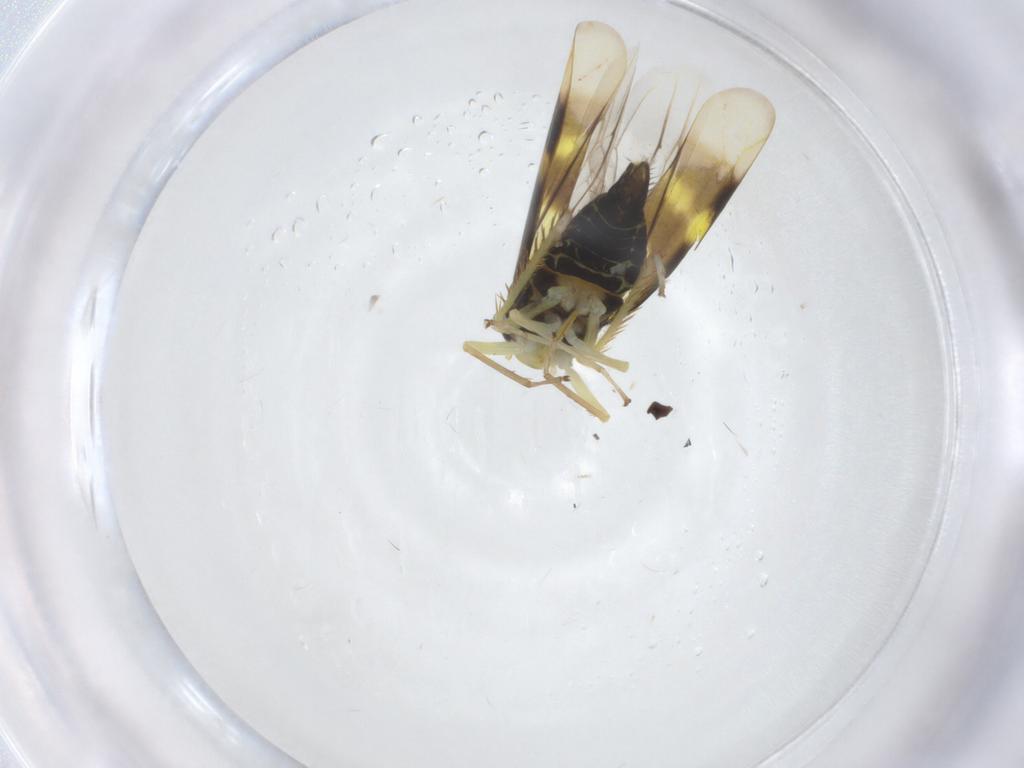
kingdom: Animalia
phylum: Arthropoda
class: Insecta
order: Hemiptera
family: Cicadellidae
